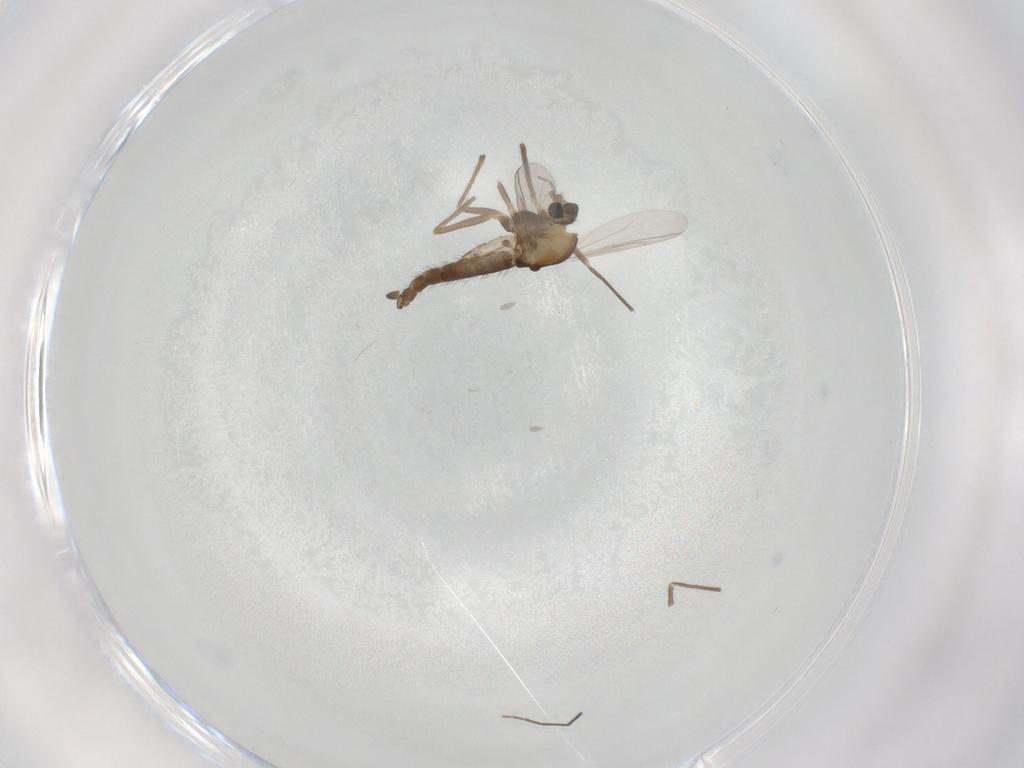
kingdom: Animalia
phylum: Arthropoda
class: Insecta
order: Diptera
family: Chironomidae
